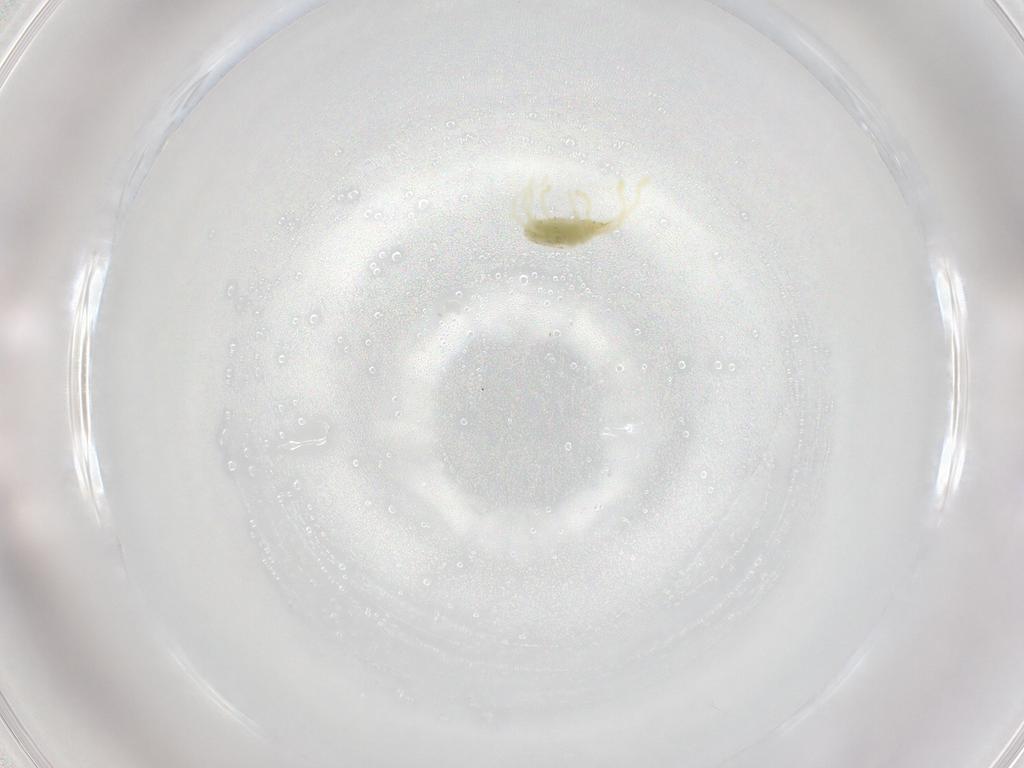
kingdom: Animalia
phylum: Arthropoda
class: Arachnida
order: Trombidiformes
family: Erythraeidae
